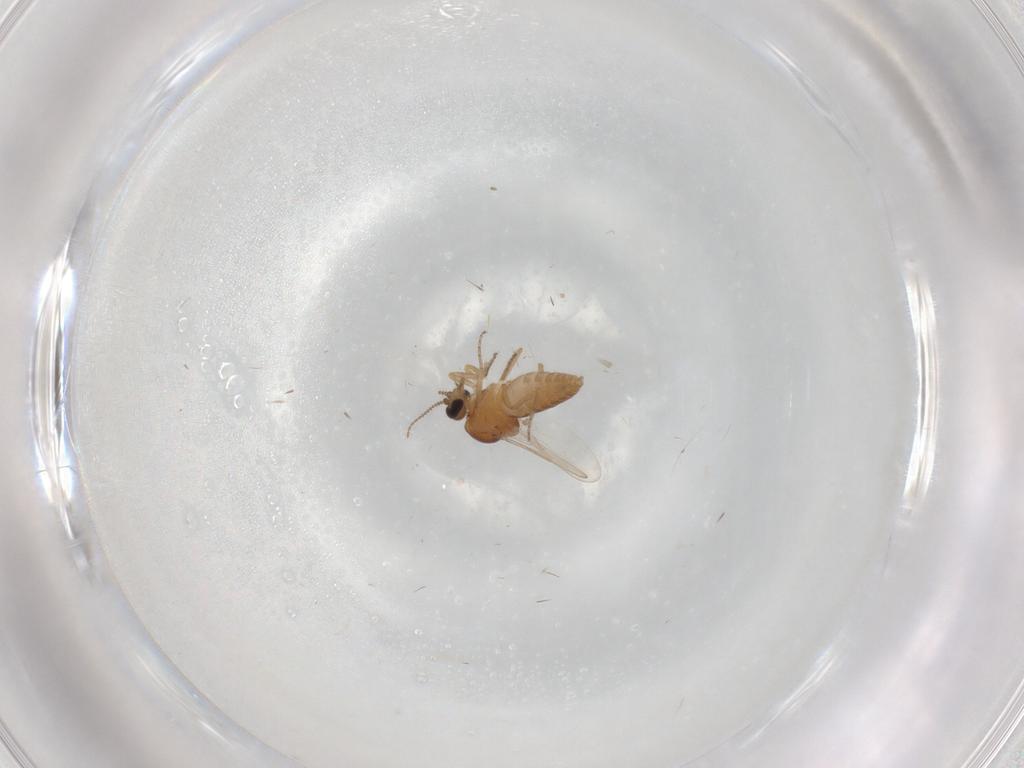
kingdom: Animalia
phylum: Arthropoda
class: Insecta
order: Diptera
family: Ceratopogonidae
